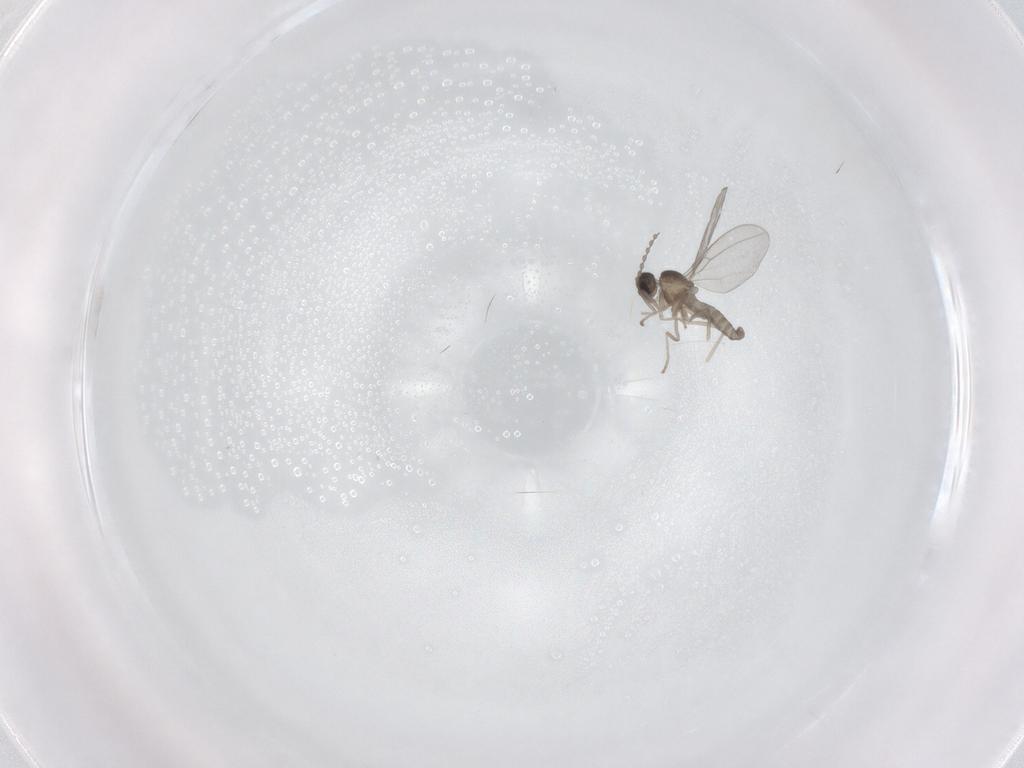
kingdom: Animalia
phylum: Arthropoda
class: Insecta
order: Diptera
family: Cecidomyiidae
